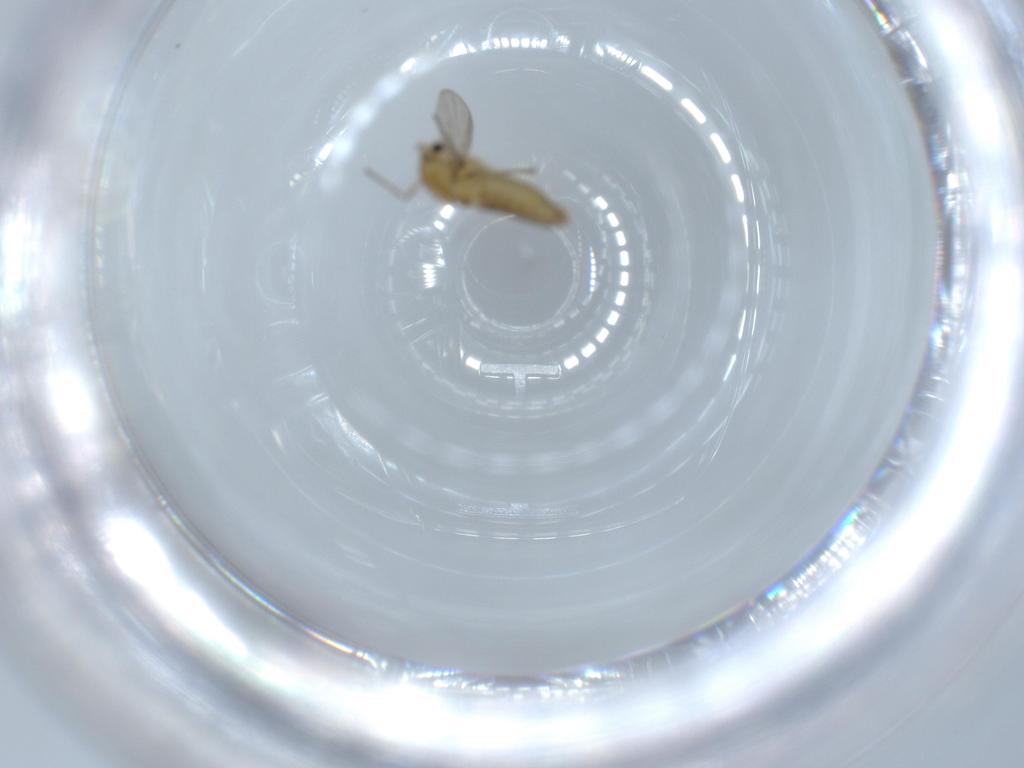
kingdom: Animalia
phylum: Arthropoda
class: Insecta
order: Diptera
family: Chironomidae
